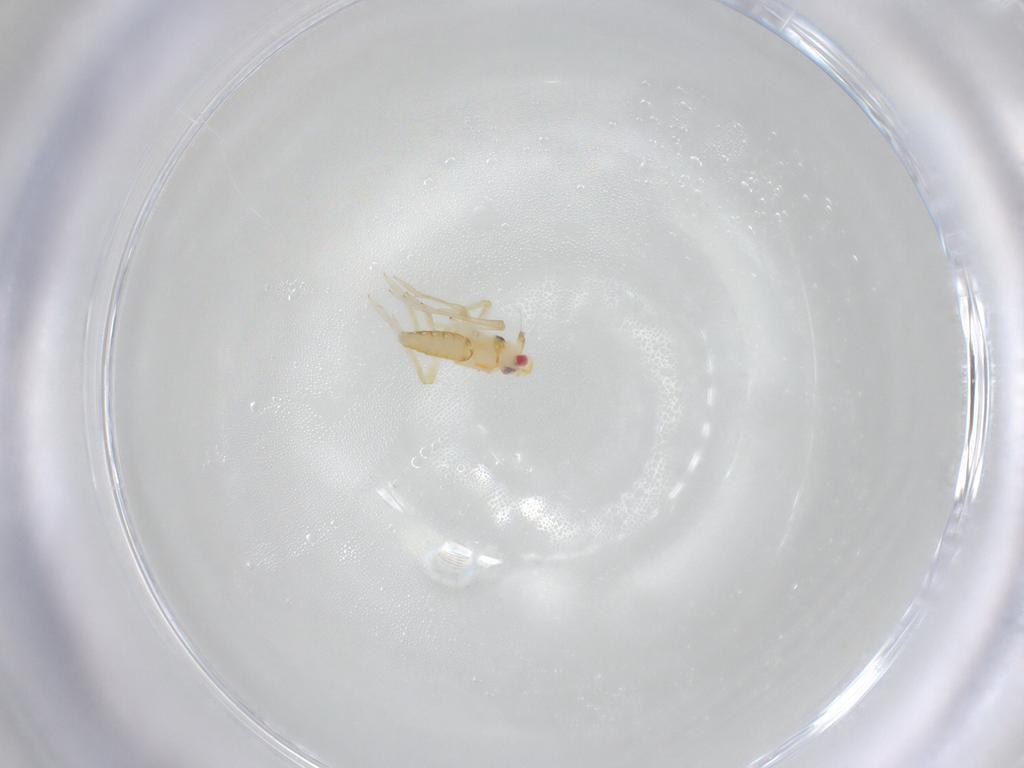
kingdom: Animalia
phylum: Arthropoda
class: Insecta
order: Hemiptera
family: Delphacidae
